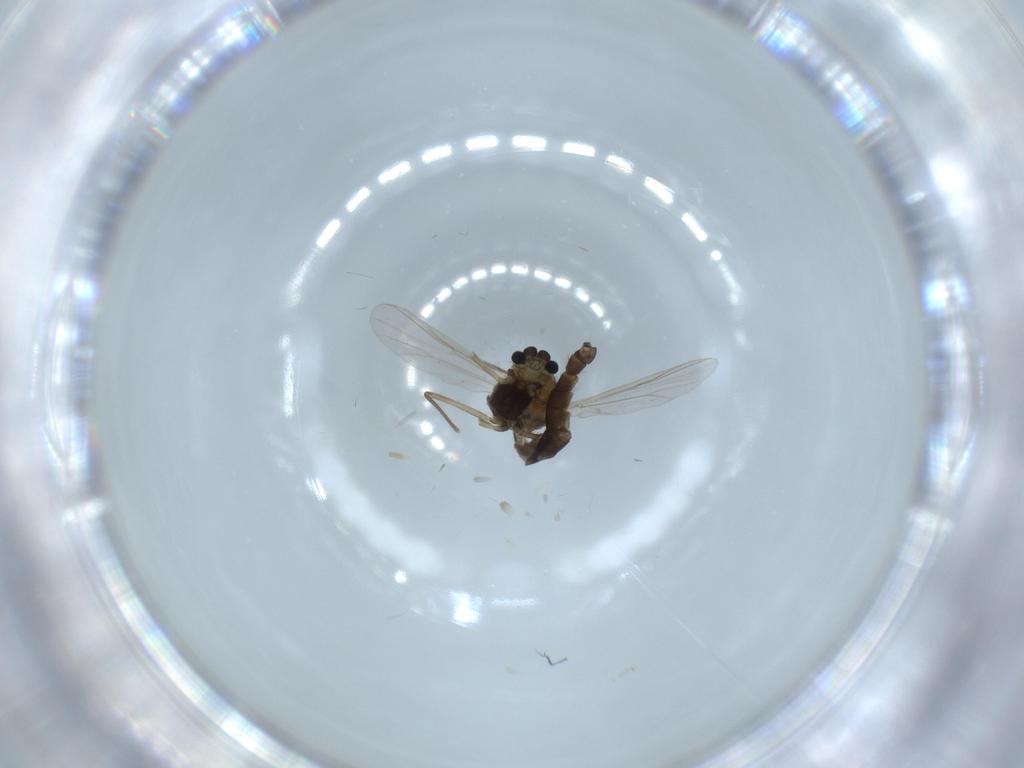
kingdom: Animalia
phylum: Arthropoda
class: Insecta
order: Diptera
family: Chironomidae
